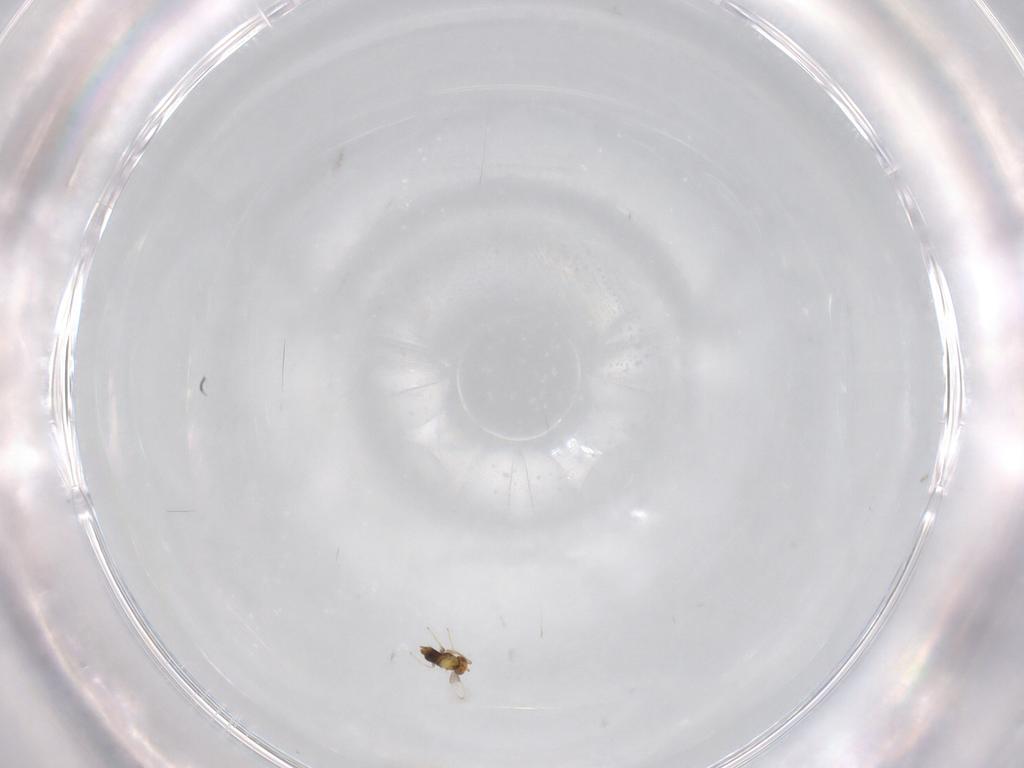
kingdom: Animalia
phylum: Arthropoda
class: Insecta
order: Hymenoptera
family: Aphelinidae
